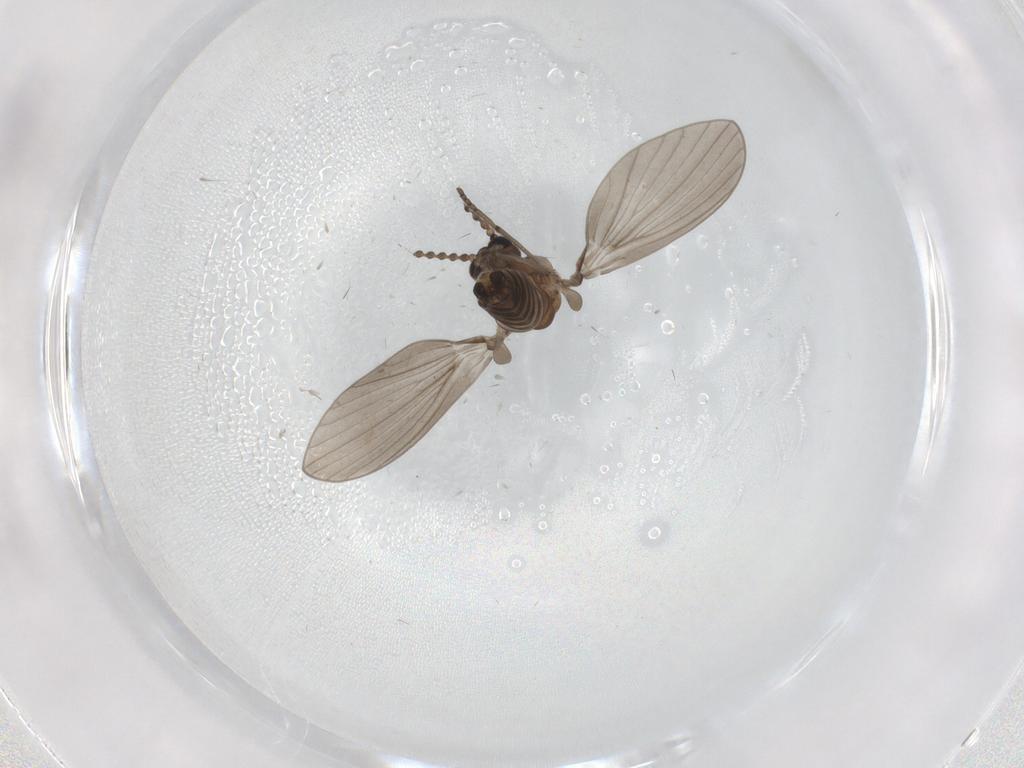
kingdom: Animalia
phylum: Arthropoda
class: Insecta
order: Diptera
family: Psychodidae
